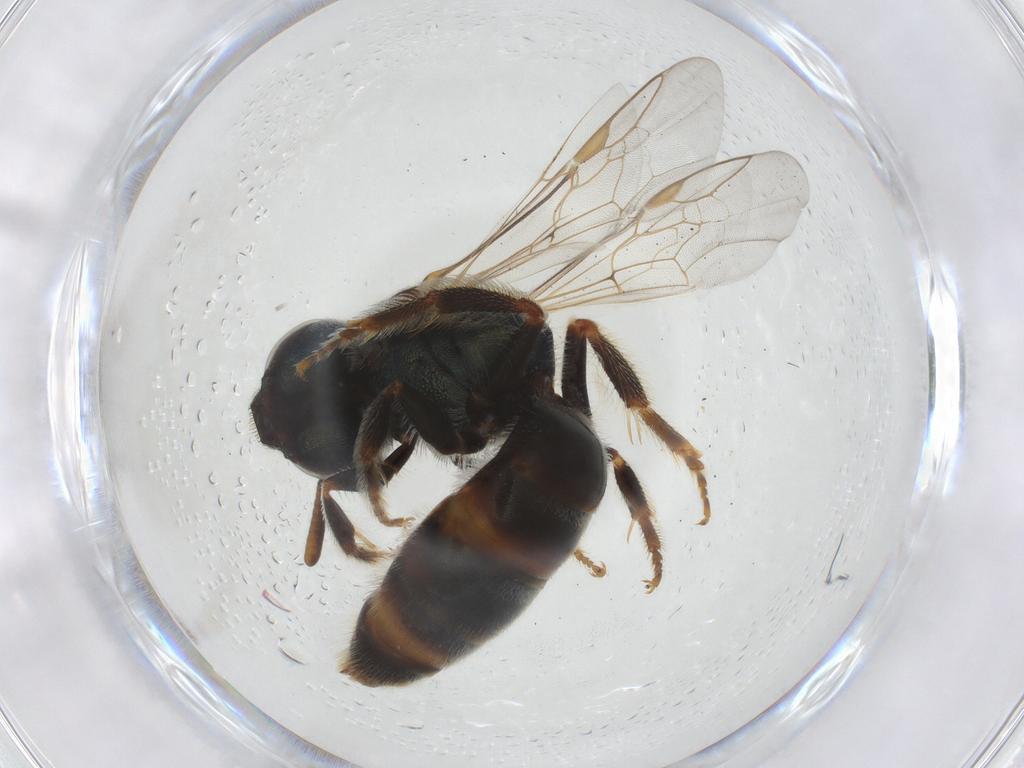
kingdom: Animalia
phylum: Arthropoda
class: Insecta
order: Hymenoptera
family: Halictidae
